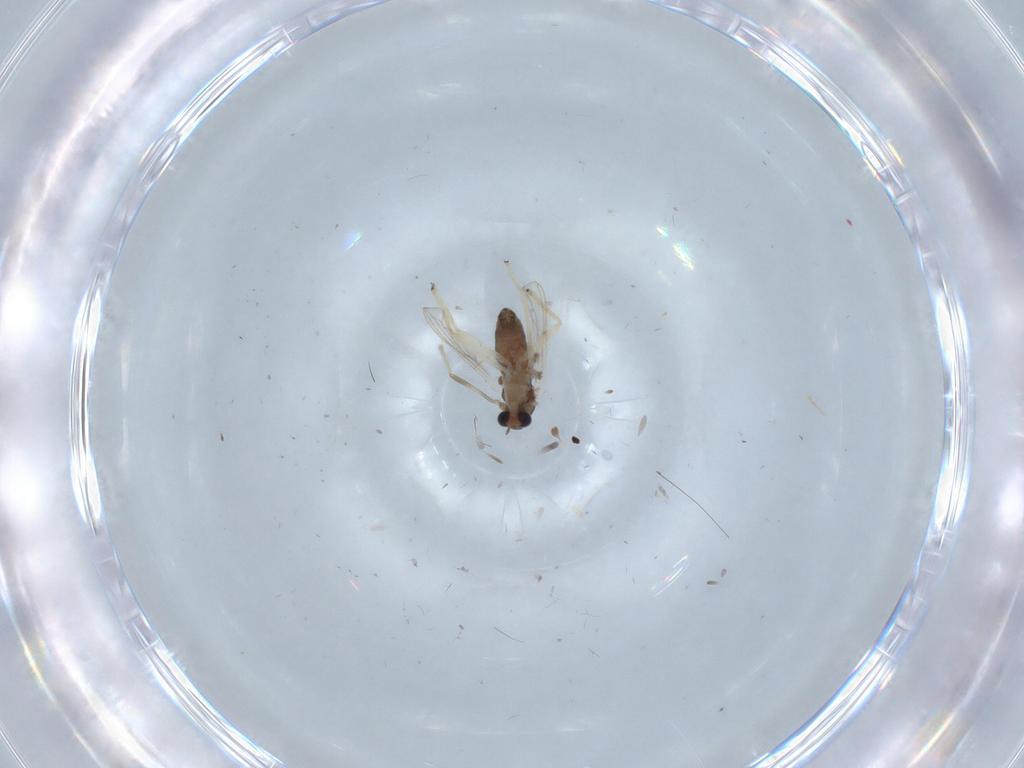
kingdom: Animalia
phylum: Arthropoda
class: Insecta
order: Diptera
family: Chironomidae
